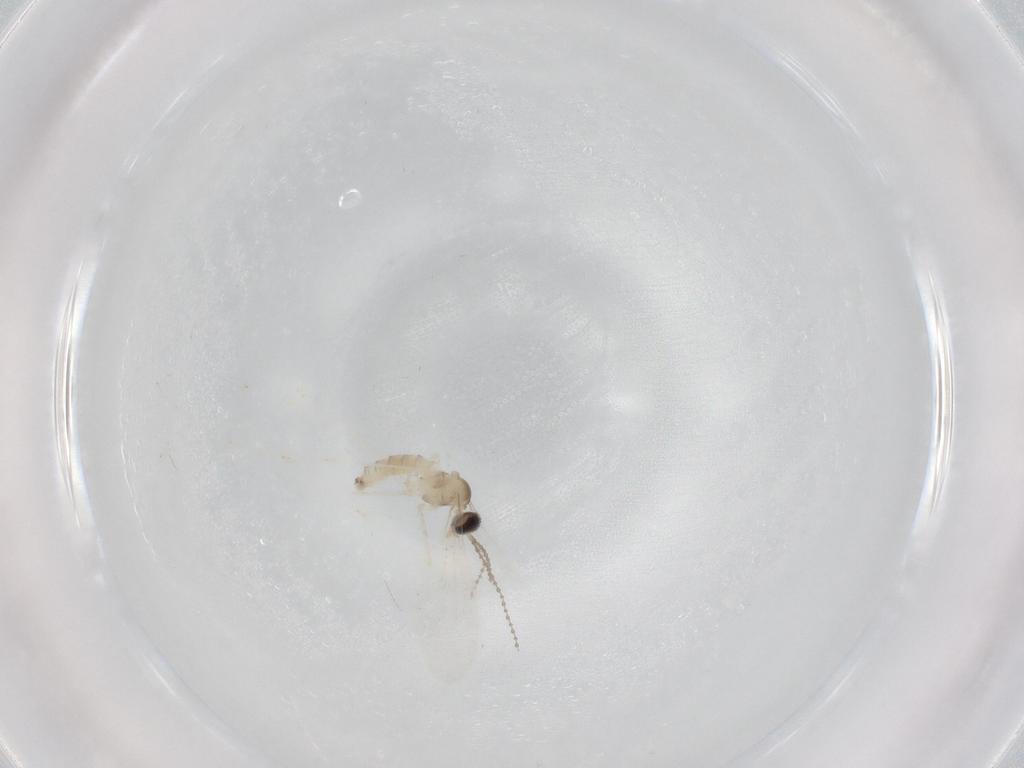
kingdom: Animalia
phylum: Arthropoda
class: Insecta
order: Diptera
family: Cecidomyiidae
